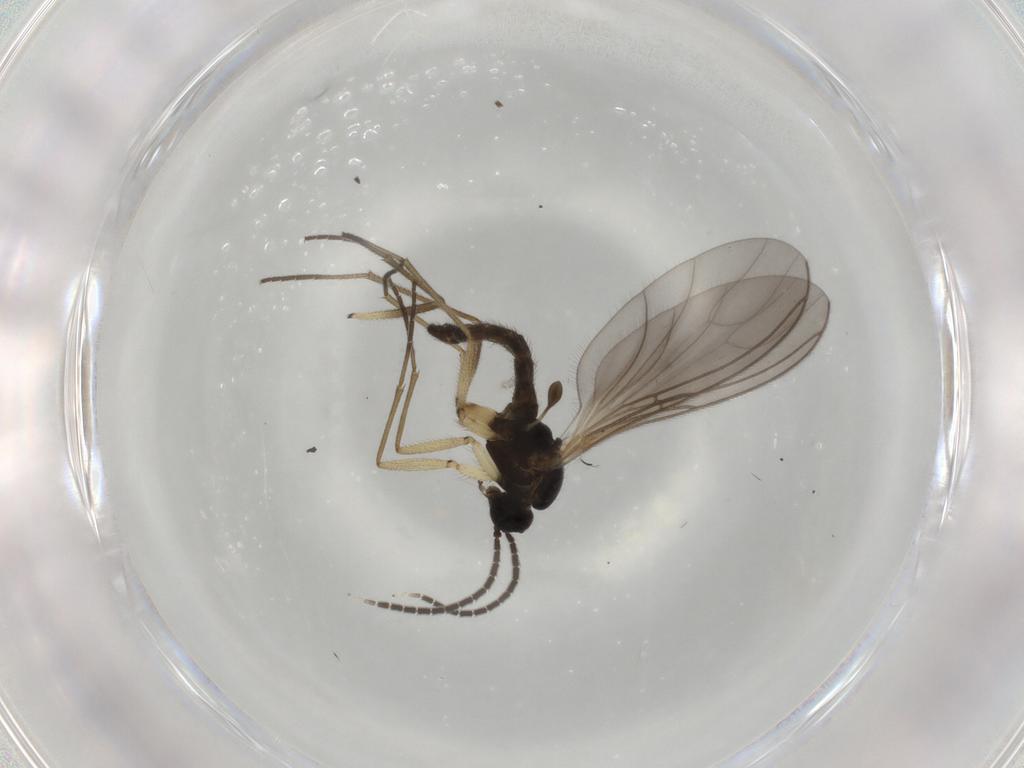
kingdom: Animalia
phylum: Arthropoda
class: Insecta
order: Diptera
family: Sciaridae
